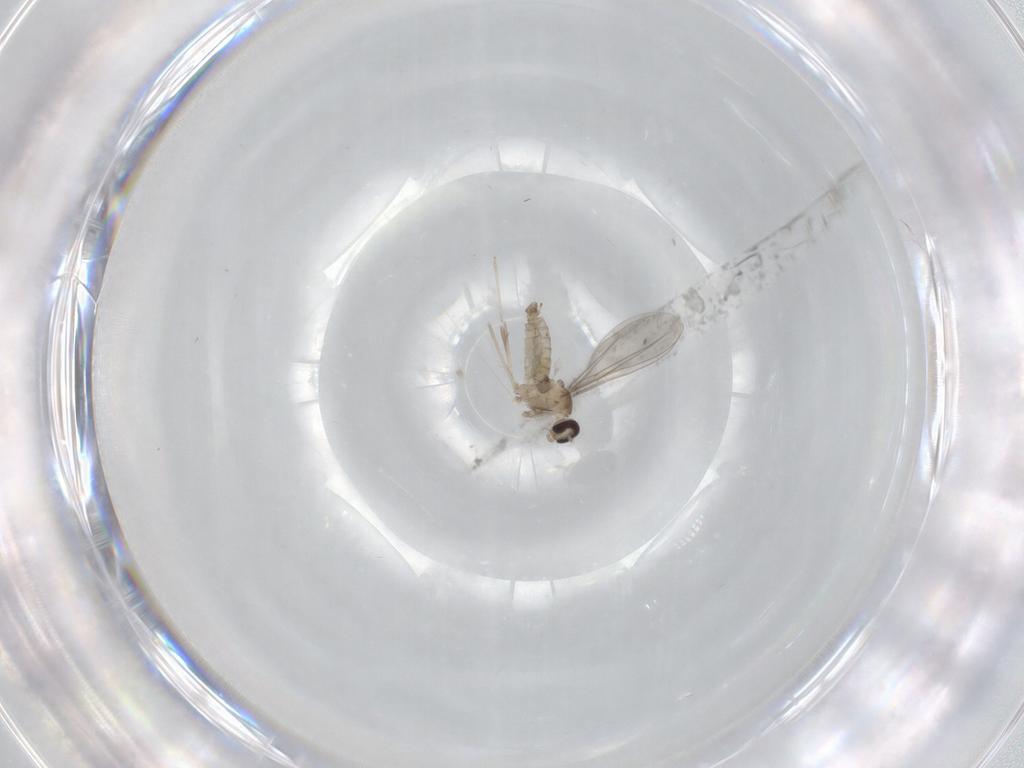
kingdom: Animalia
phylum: Arthropoda
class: Insecta
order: Diptera
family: Cecidomyiidae
